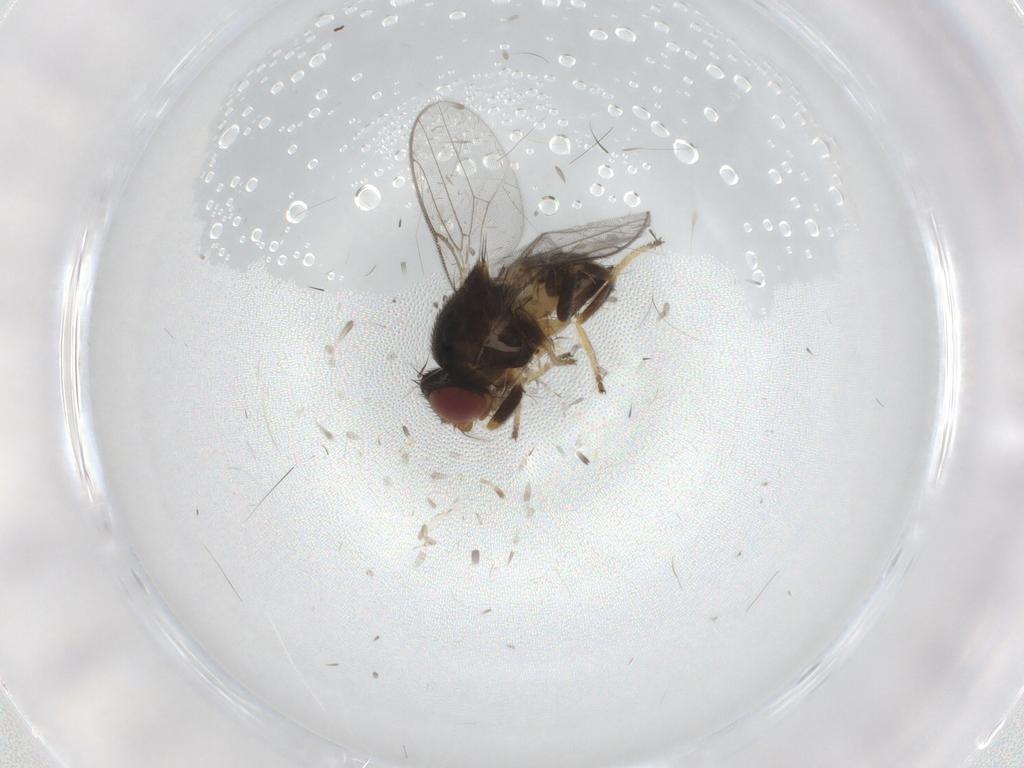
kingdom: Animalia
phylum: Arthropoda
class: Insecta
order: Diptera
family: Chloropidae
